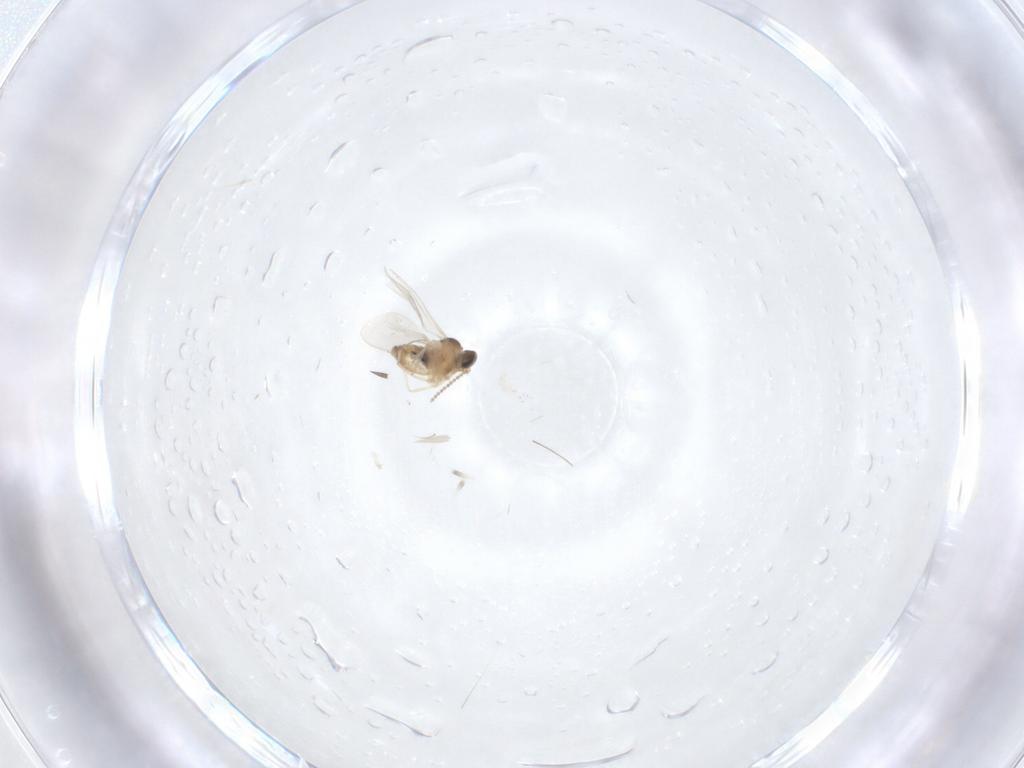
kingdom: Animalia
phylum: Arthropoda
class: Insecta
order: Diptera
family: Cecidomyiidae
